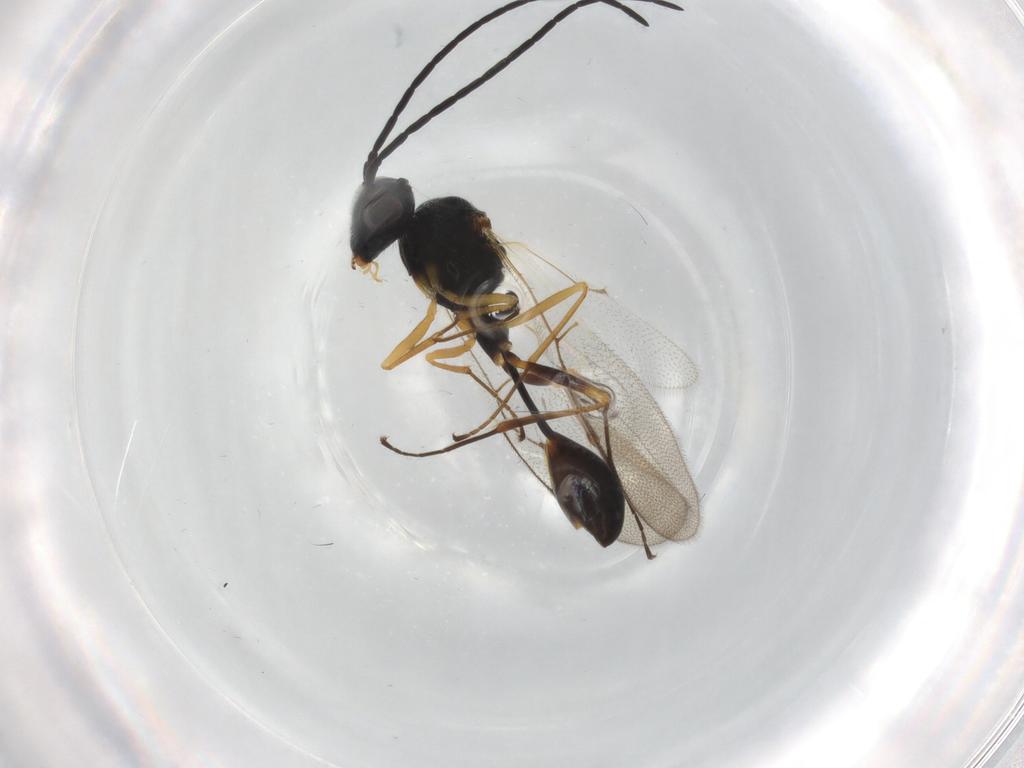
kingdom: Animalia
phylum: Arthropoda
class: Insecta
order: Hymenoptera
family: Figitidae
